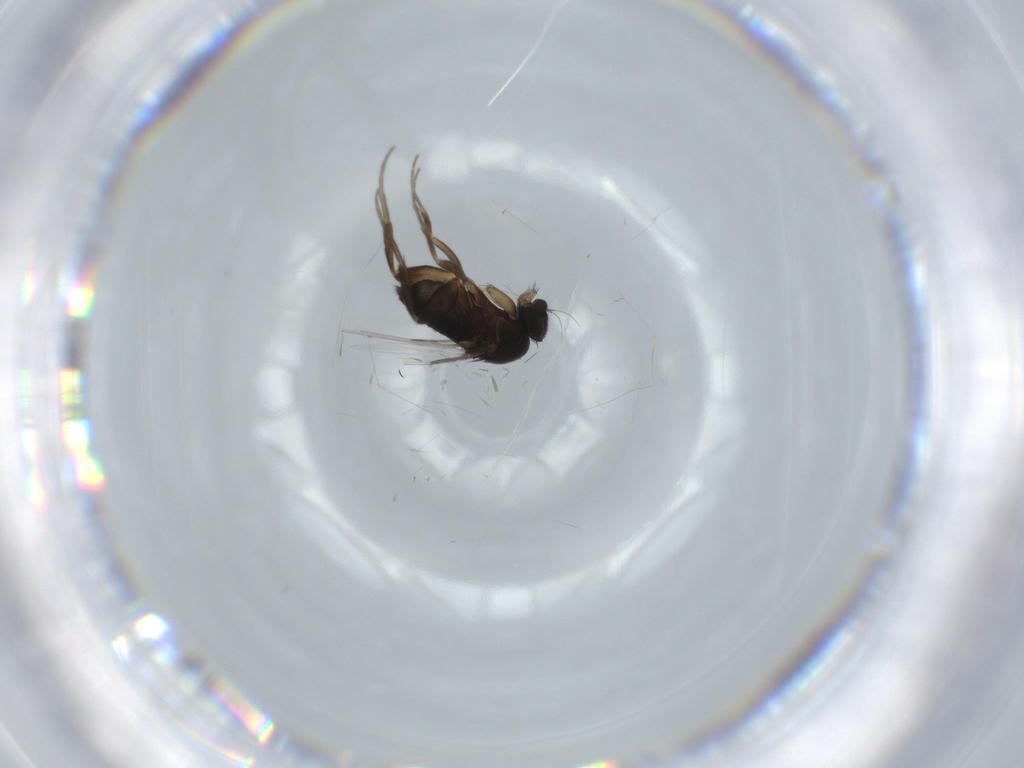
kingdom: Animalia
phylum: Arthropoda
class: Insecta
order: Diptera
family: Phoridae
